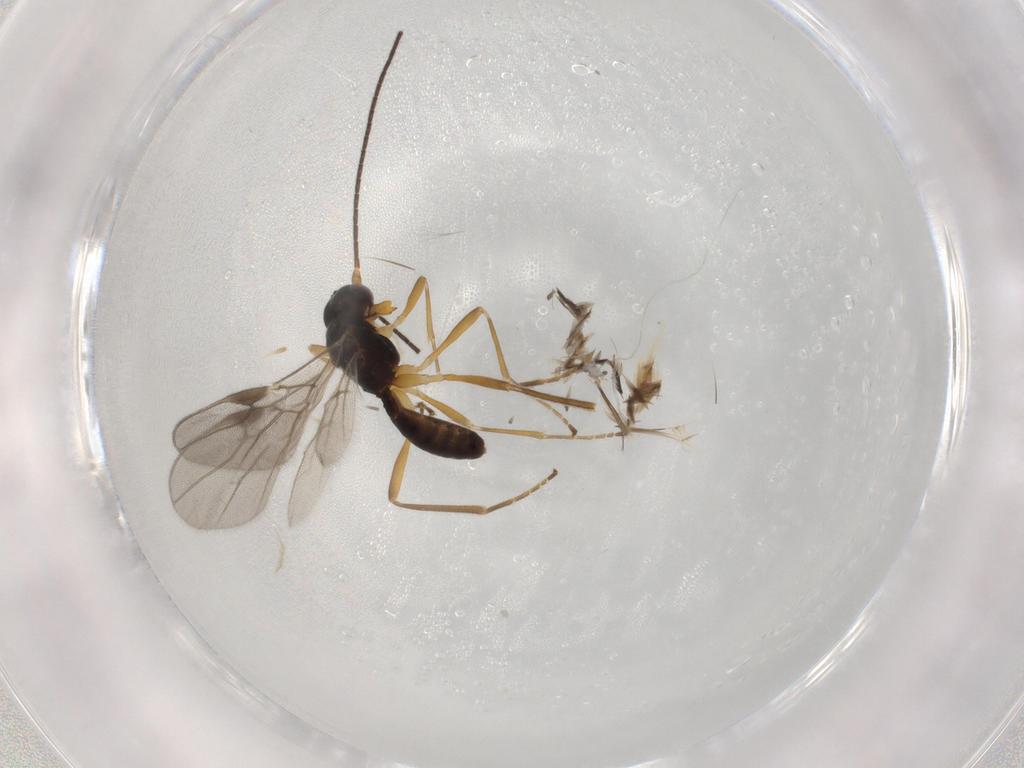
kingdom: Animalia
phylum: Arthropoda
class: Insecta
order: Hymenoptera
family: Braconidae
